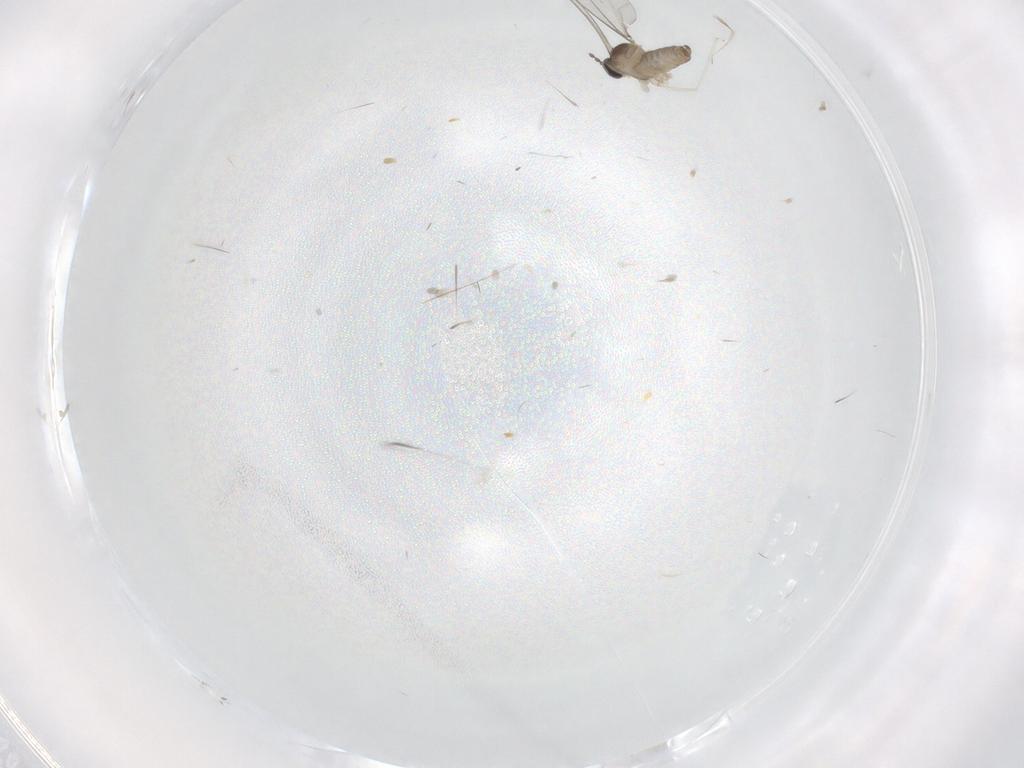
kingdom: Animalia
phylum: Arthropoda
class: Insecta
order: Diptera
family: Cecidomyiidae
